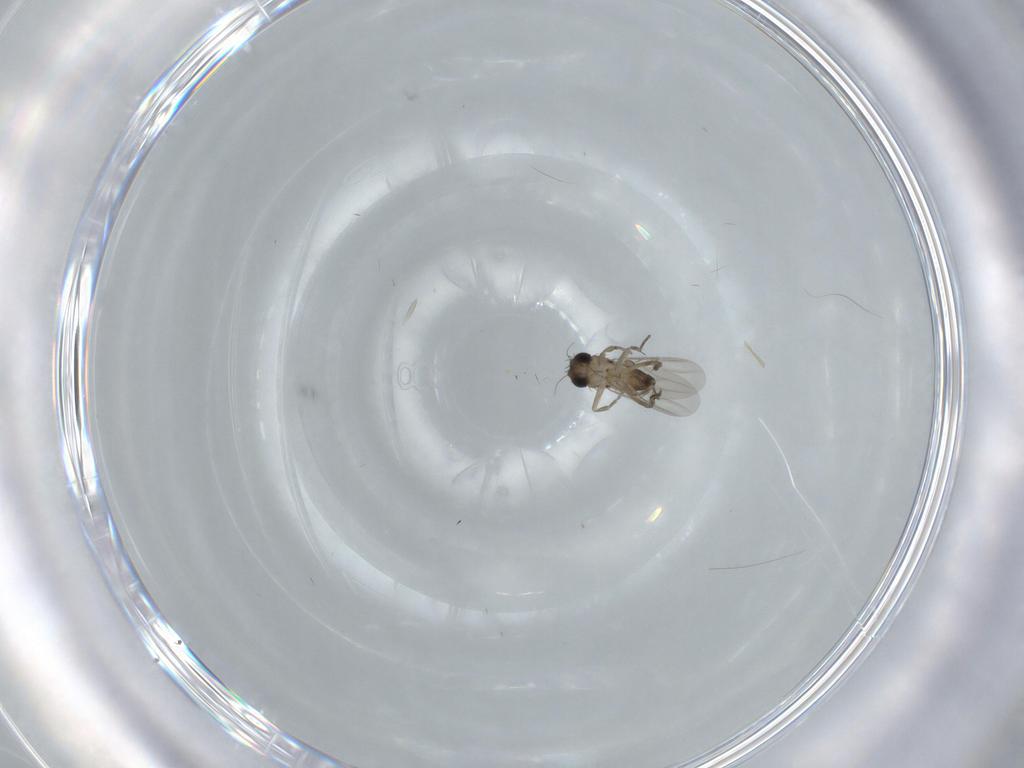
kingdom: Animalia
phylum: Arthropoda
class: Insecta
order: Diptera
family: Phoridae
